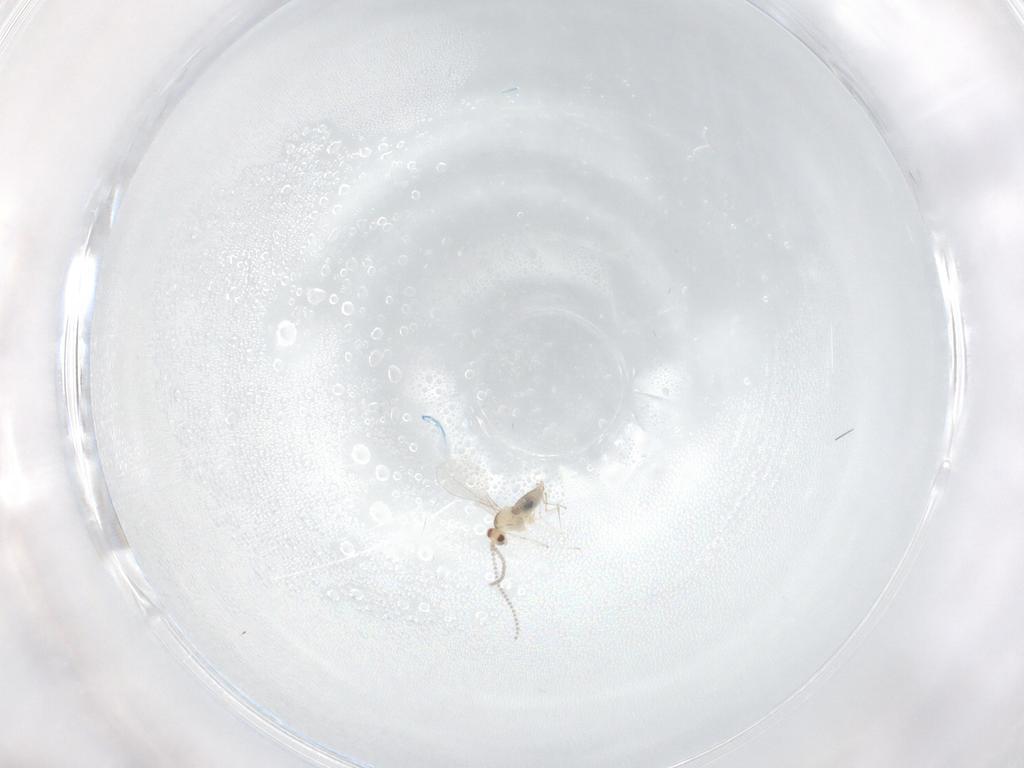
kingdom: Animalia
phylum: Arthropoda
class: Insecta
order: Diptera
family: Cecidomyiidae
